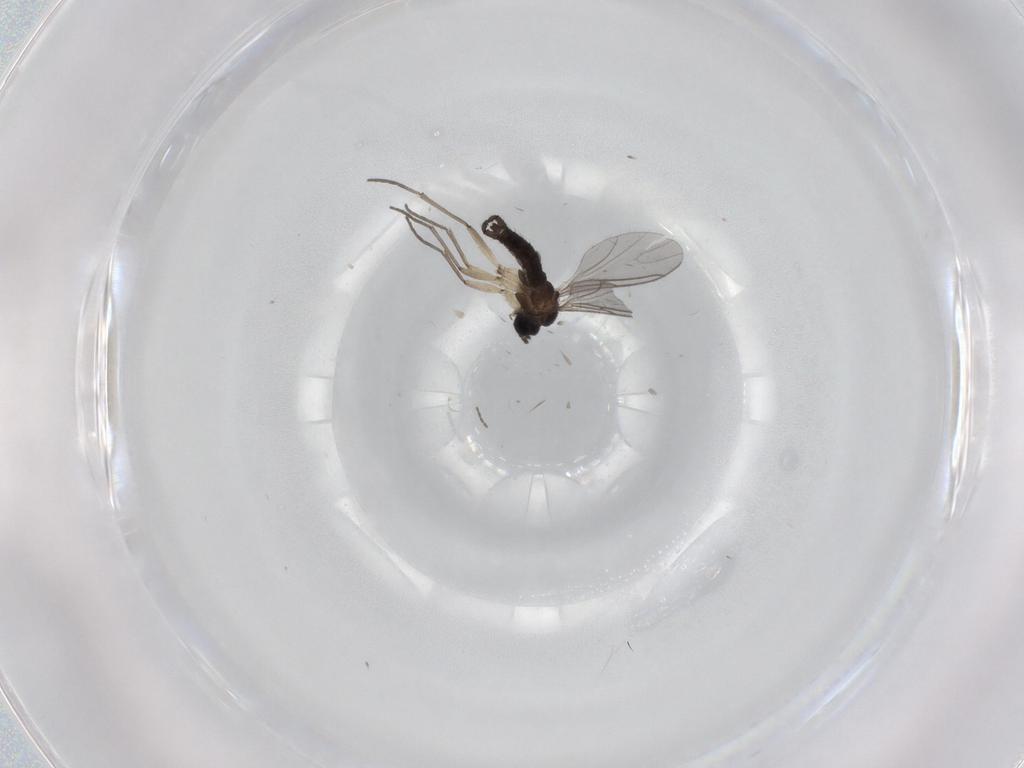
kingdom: Animalia
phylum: Arthropoda
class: Insecta
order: Diptera
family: Sciaridae
